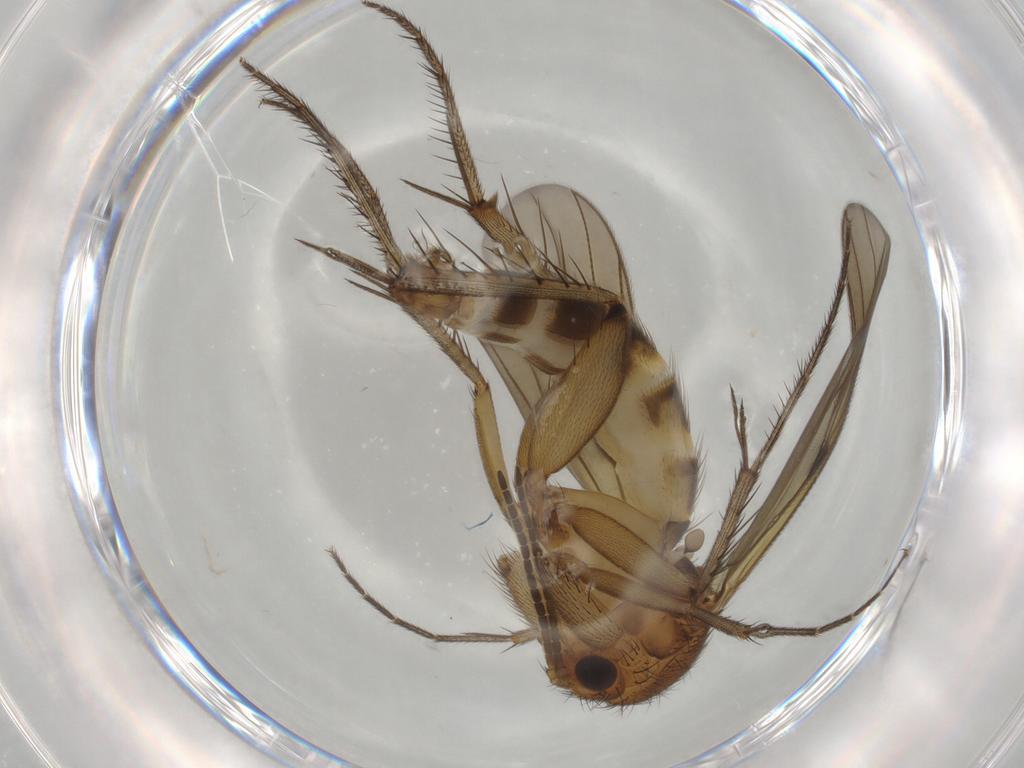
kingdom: Animalia
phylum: Arthropoda
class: Insecta
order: Diptera
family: Mycetophilidae
